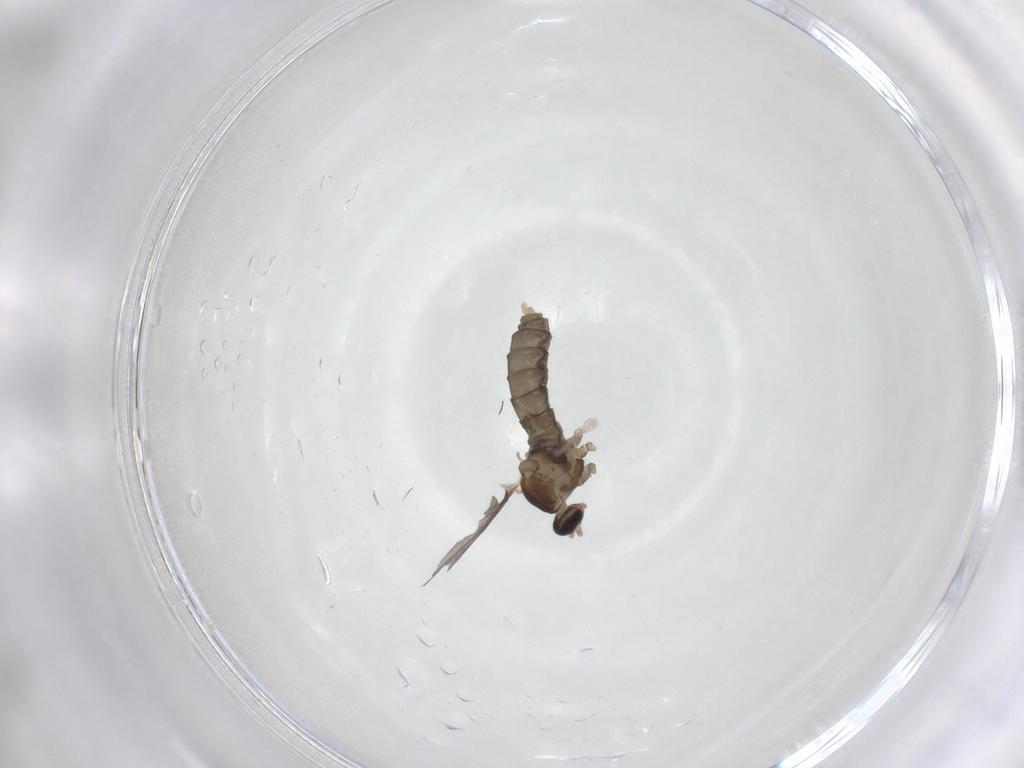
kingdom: Animalia
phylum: Arthropoda
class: Insecta
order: Diptera
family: Cecidomyiidae
